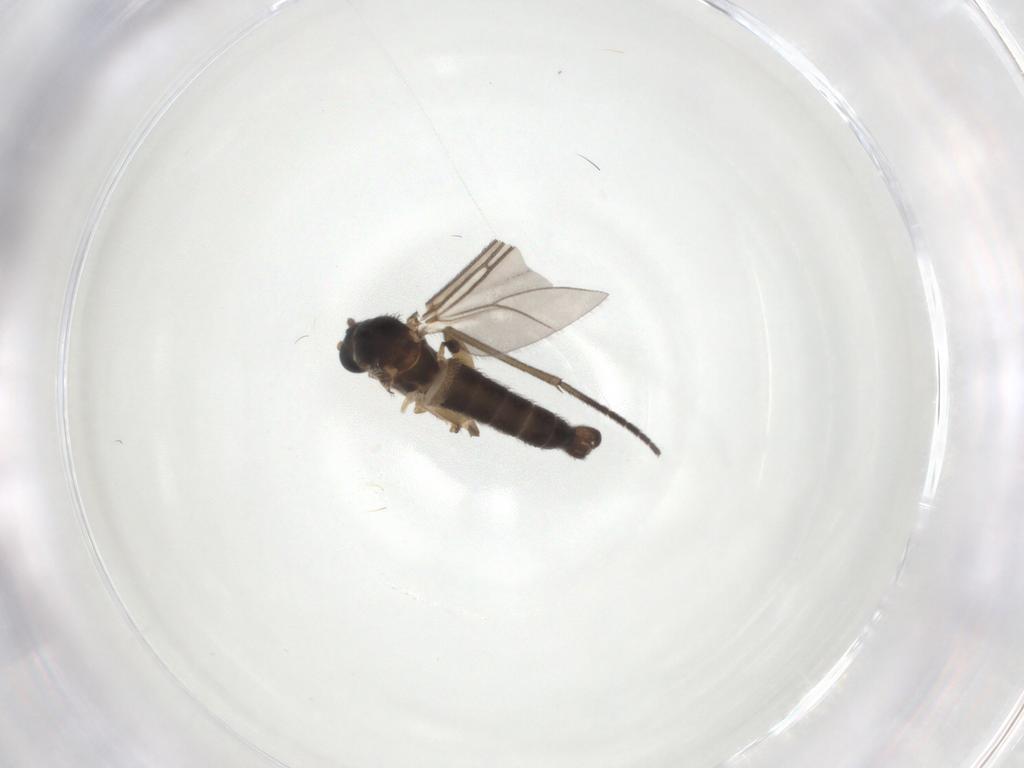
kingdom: Animalia
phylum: Arthropoda
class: Insecta
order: Diptera
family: Sciaridae
